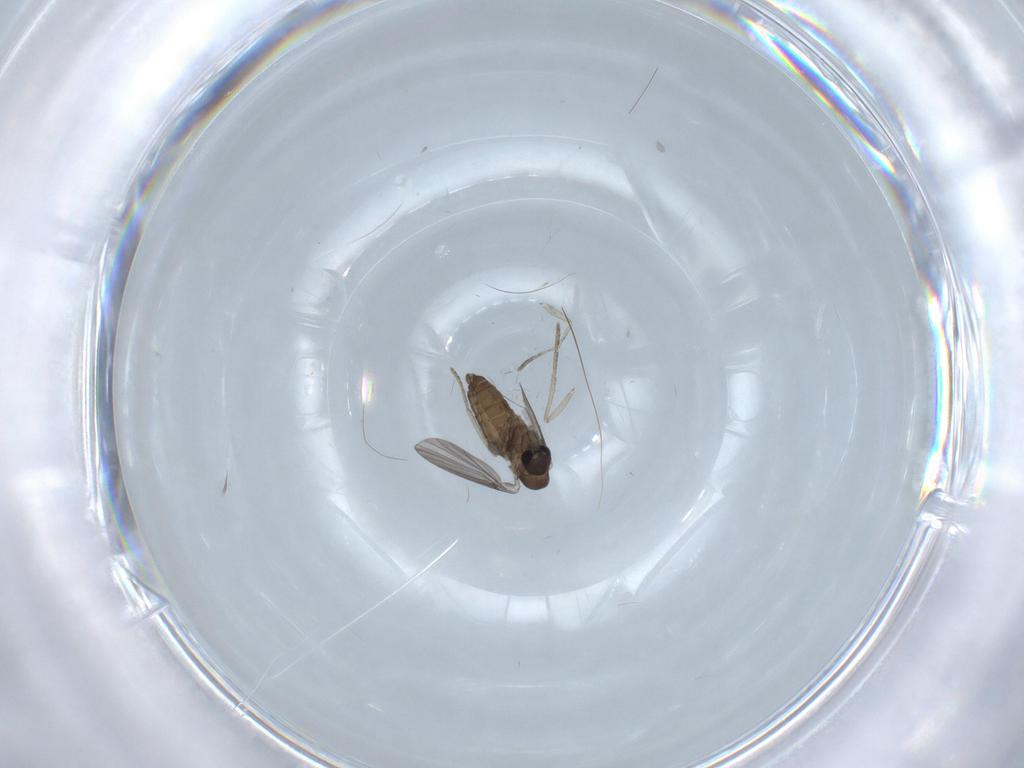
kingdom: Animalia
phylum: Arthropoda
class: Insecta
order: Diptera
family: Psychodidae
